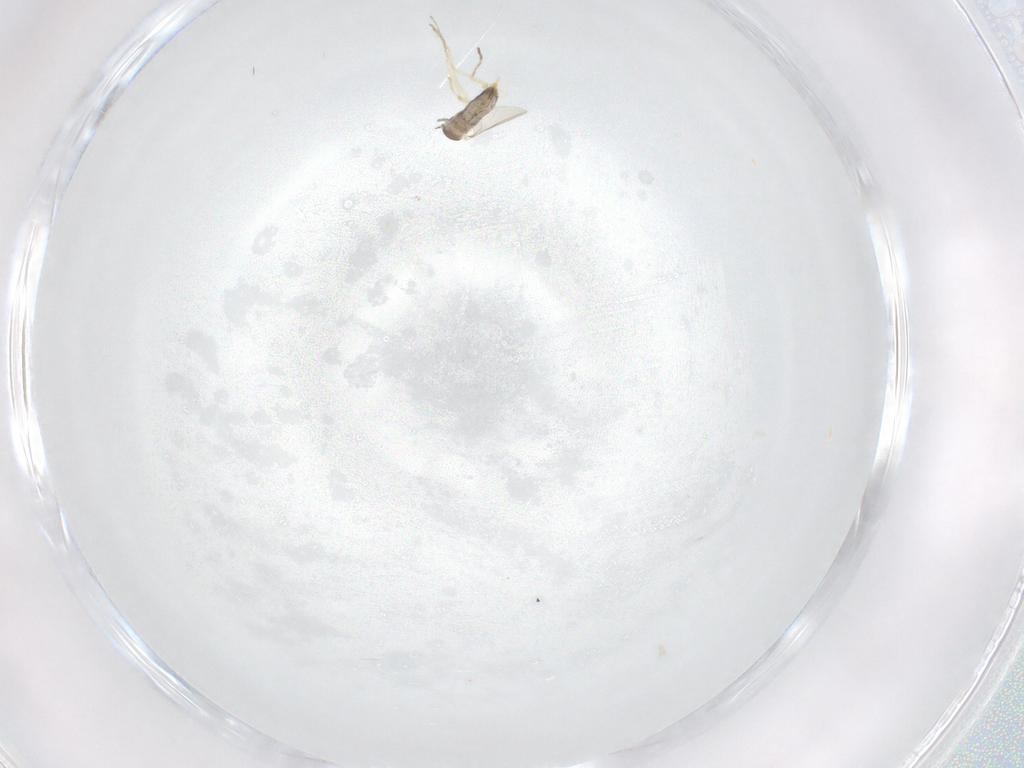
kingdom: Animalia
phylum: Arthropoda
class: Insecta
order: Diptera
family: Cecidomyiidae
